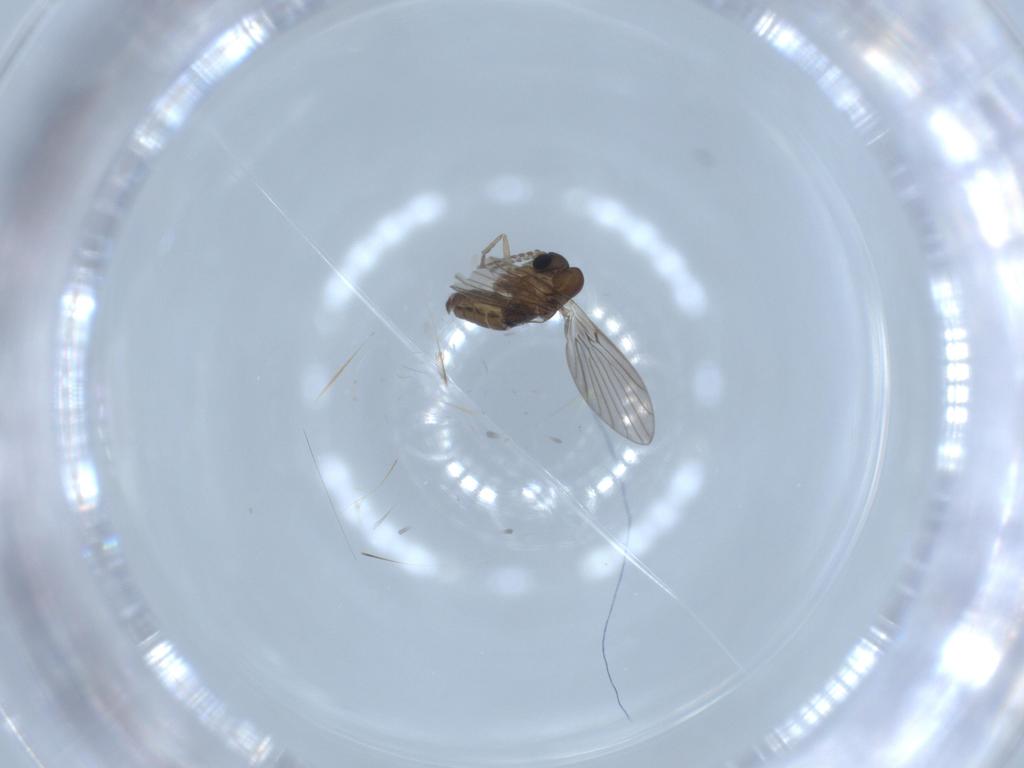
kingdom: Animalia
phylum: Arthropoda
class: Insecta
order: Diptera
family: Psychodidae
